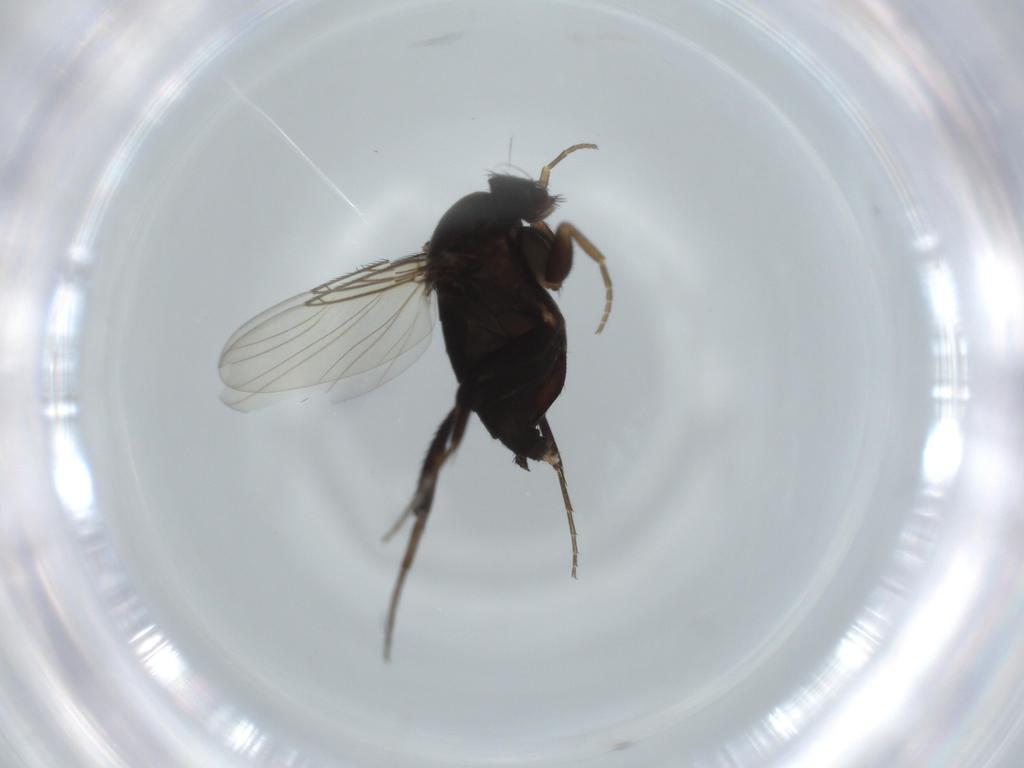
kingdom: Animalia
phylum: Arthropoda
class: Insecta
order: Diptera
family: Phoridae
